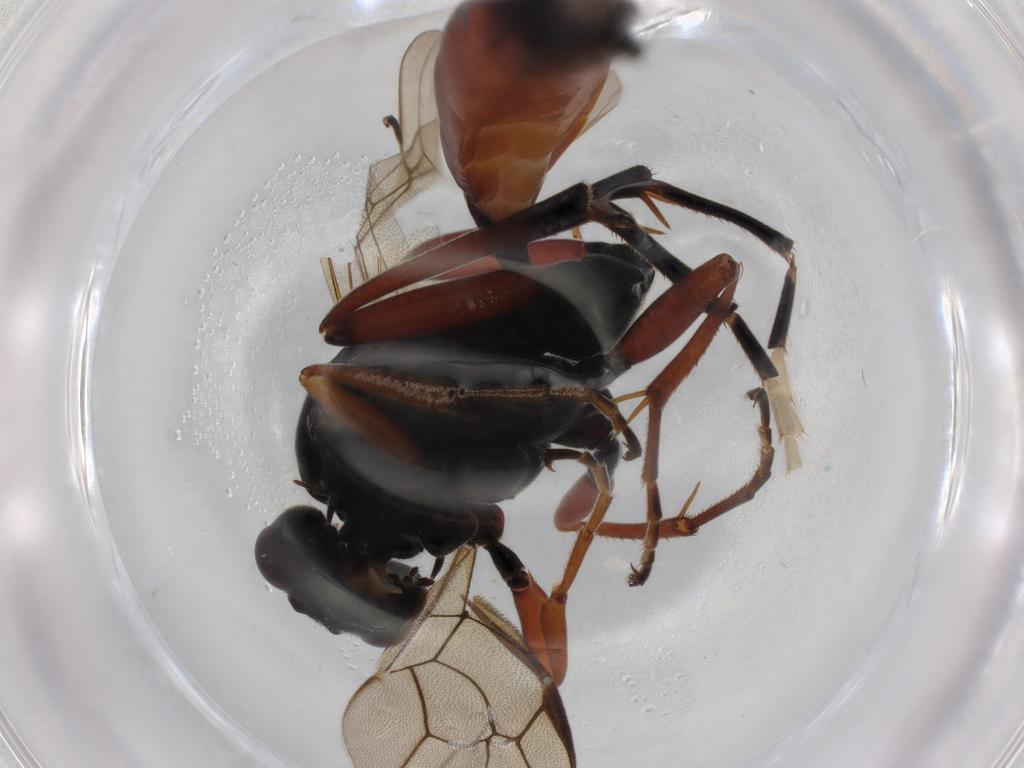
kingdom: Animalia
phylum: Arthropoda
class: Insecta
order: Hymenoptera
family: Ichneumonidae
